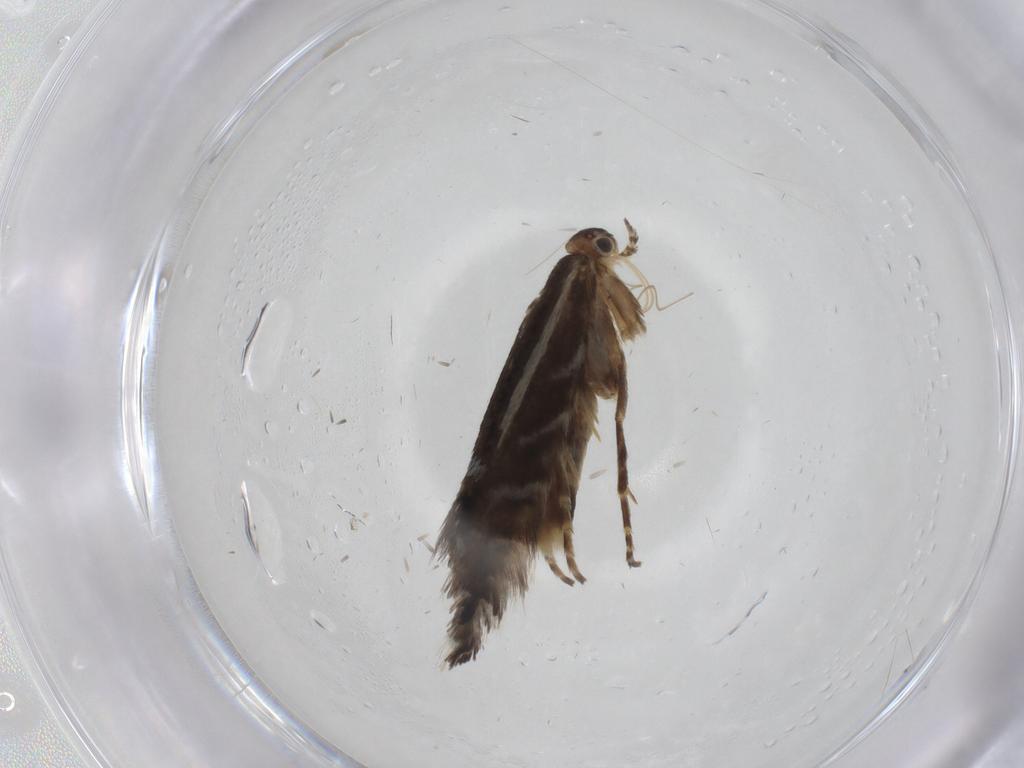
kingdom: Animalia
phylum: Arthropoda
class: Insecta
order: Lepidoptera
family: Glyphipterigidae
